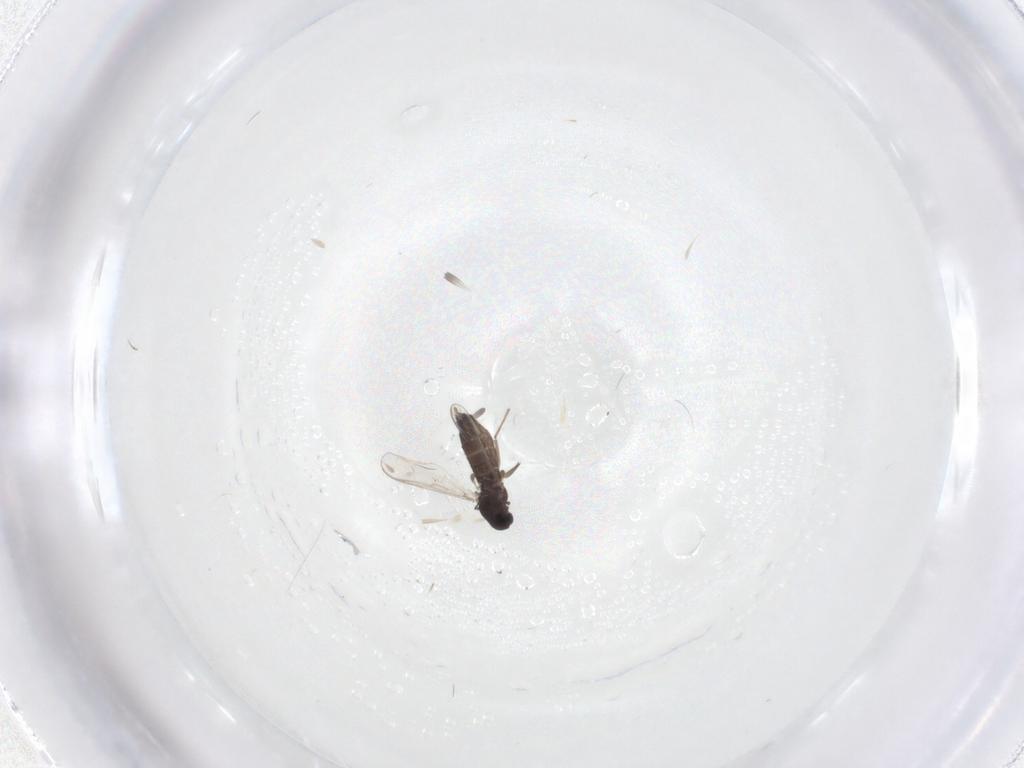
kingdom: Animalia
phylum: Arthropoda
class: Insecta
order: Diptera
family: Chironomidae
